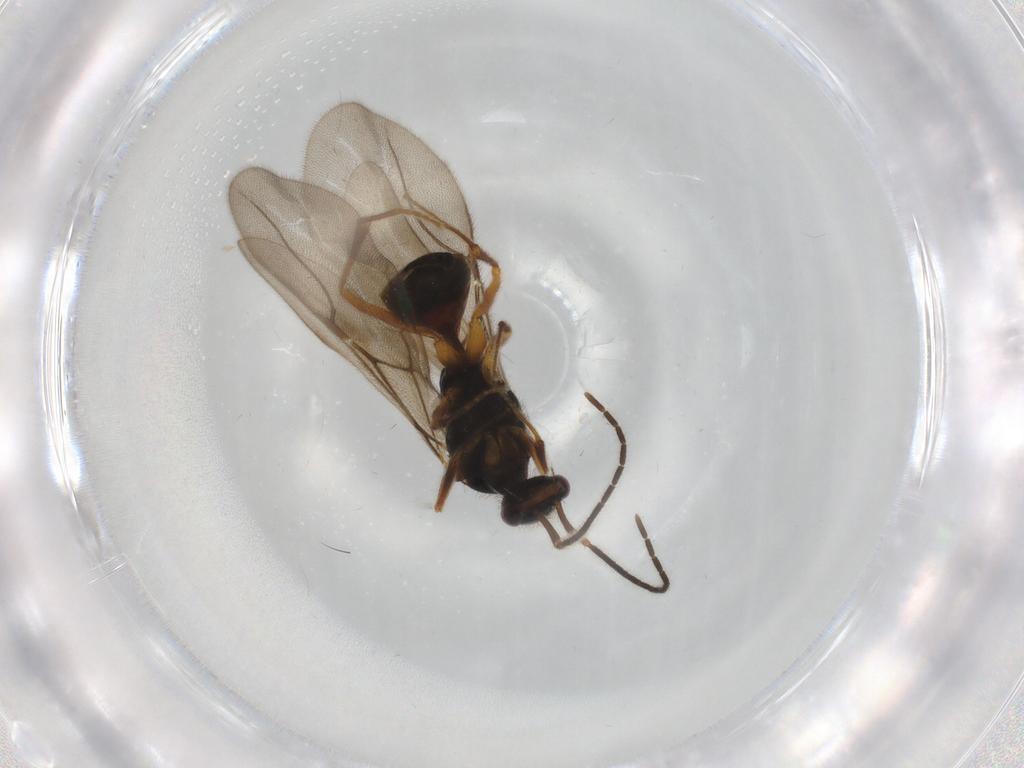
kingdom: Animalia
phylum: Arthropoda
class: Insecta
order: Hymenoptera
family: Bethylidae
